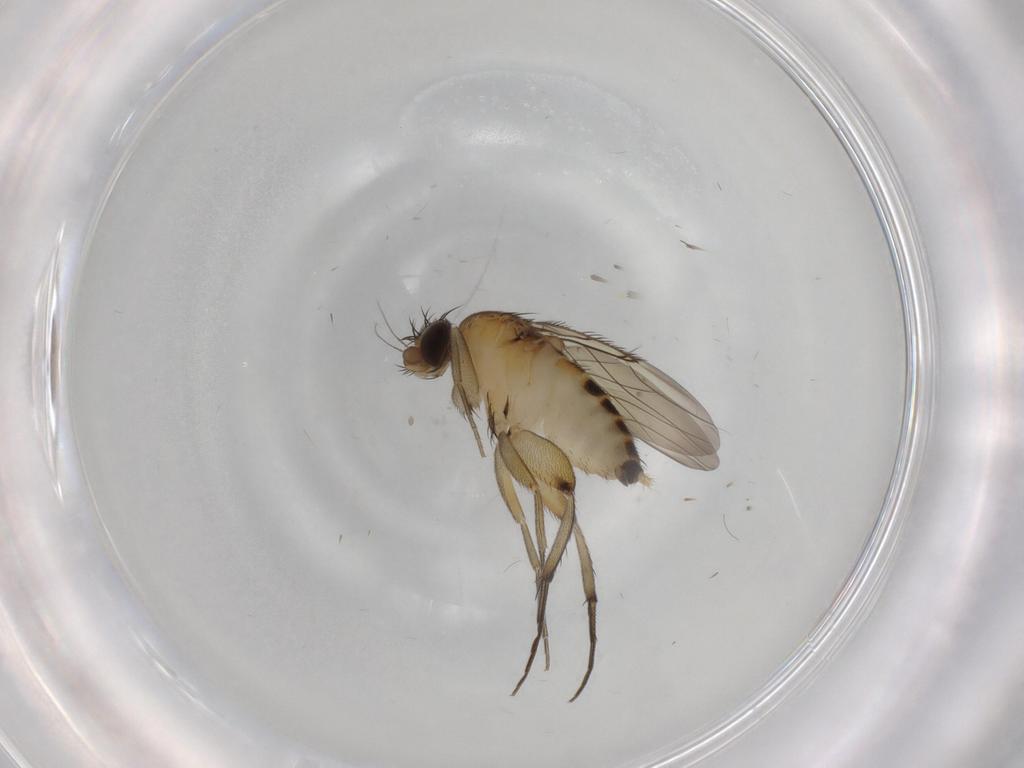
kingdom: Animalia
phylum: Arthropoda
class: Insecta
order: Diptera
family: Phoridae
